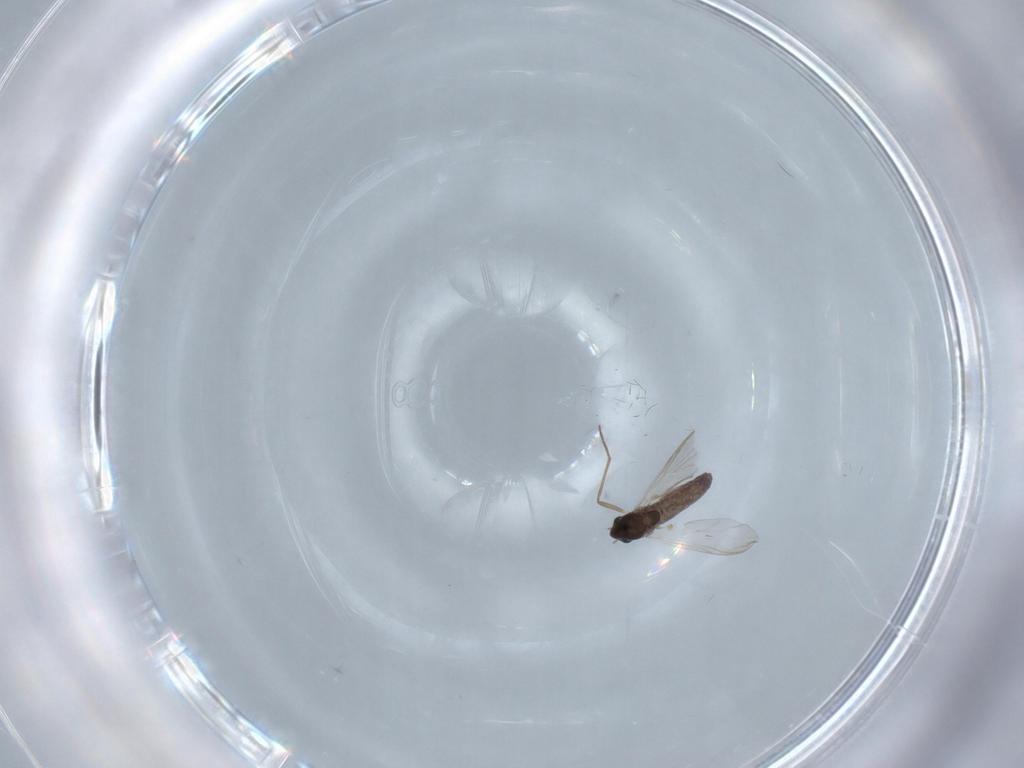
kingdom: Animalia
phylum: Arthropoda
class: Insecta
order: Diptera
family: Chironomidae
